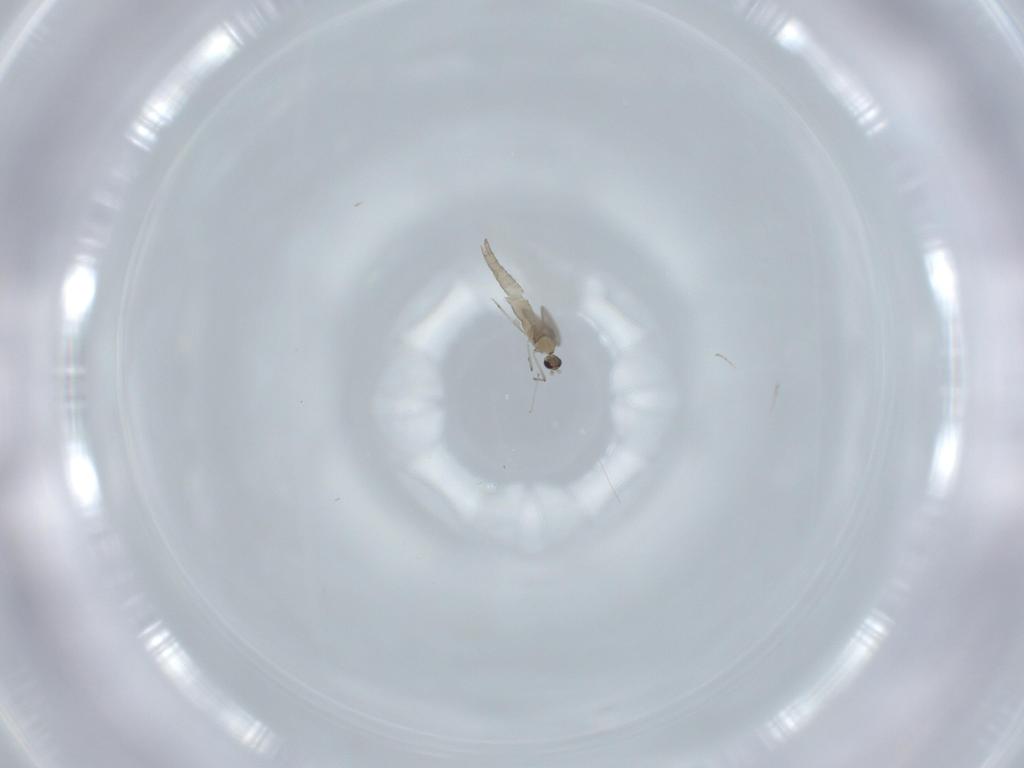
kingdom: Animalia
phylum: Arthropoda
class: Insecta
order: Diptera
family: Cecidomyiidae
